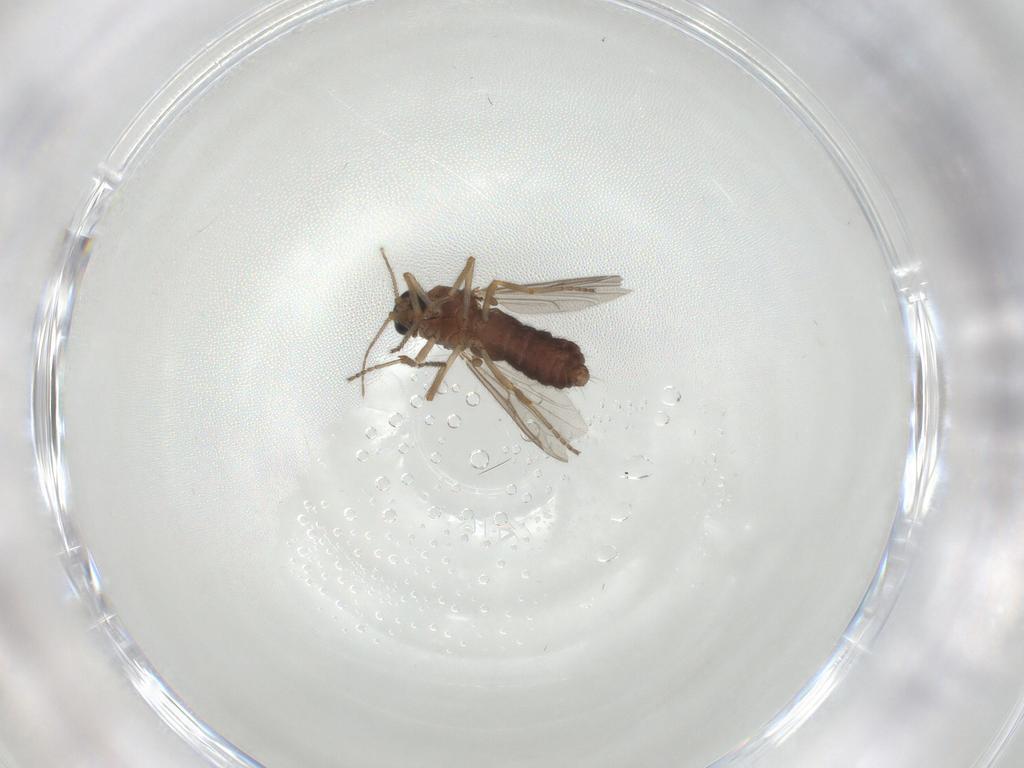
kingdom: Animalia
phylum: Arthropoda
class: Insecta
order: Diptera
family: Ceratopogonidae
